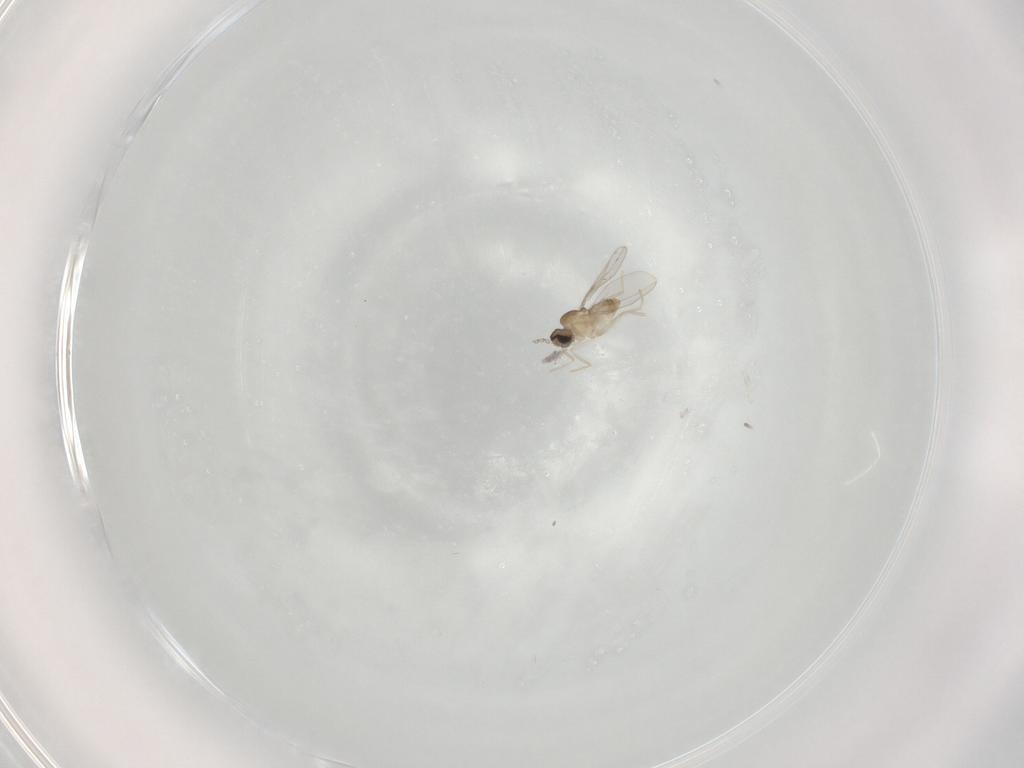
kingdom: Animalia
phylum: Arthropoda
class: Insecta
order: Diptera
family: Cecidomyiidae
